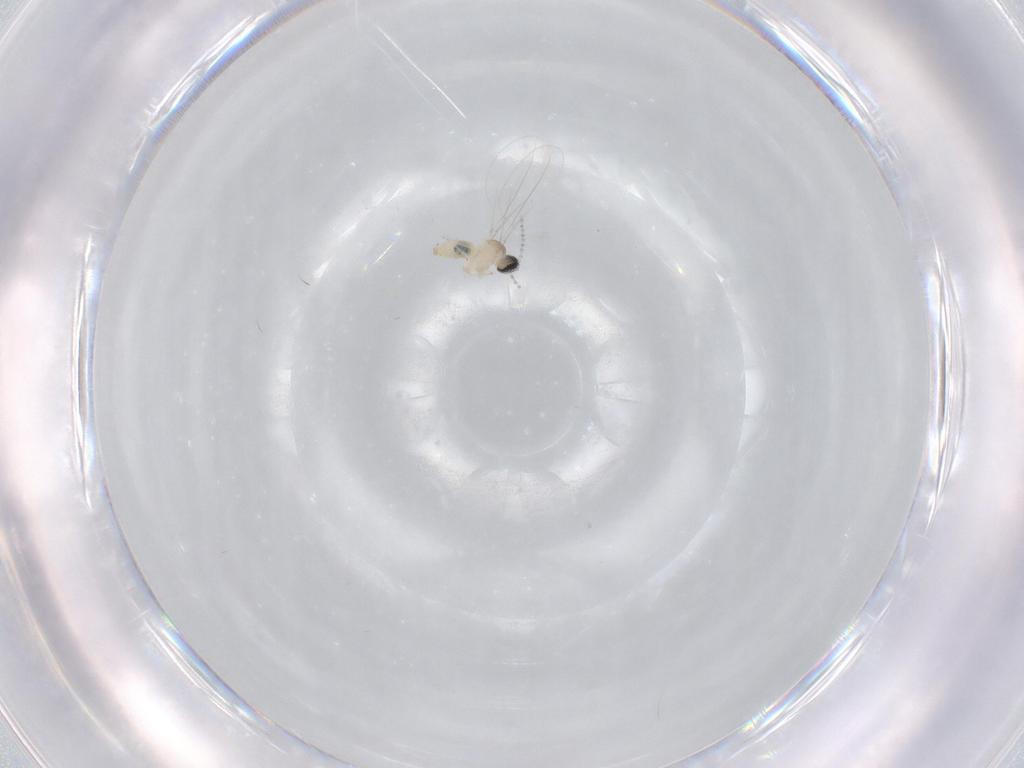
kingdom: Animalia
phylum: Arthropoda
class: Insecta
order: Diptera
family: Cecidomyiidae
